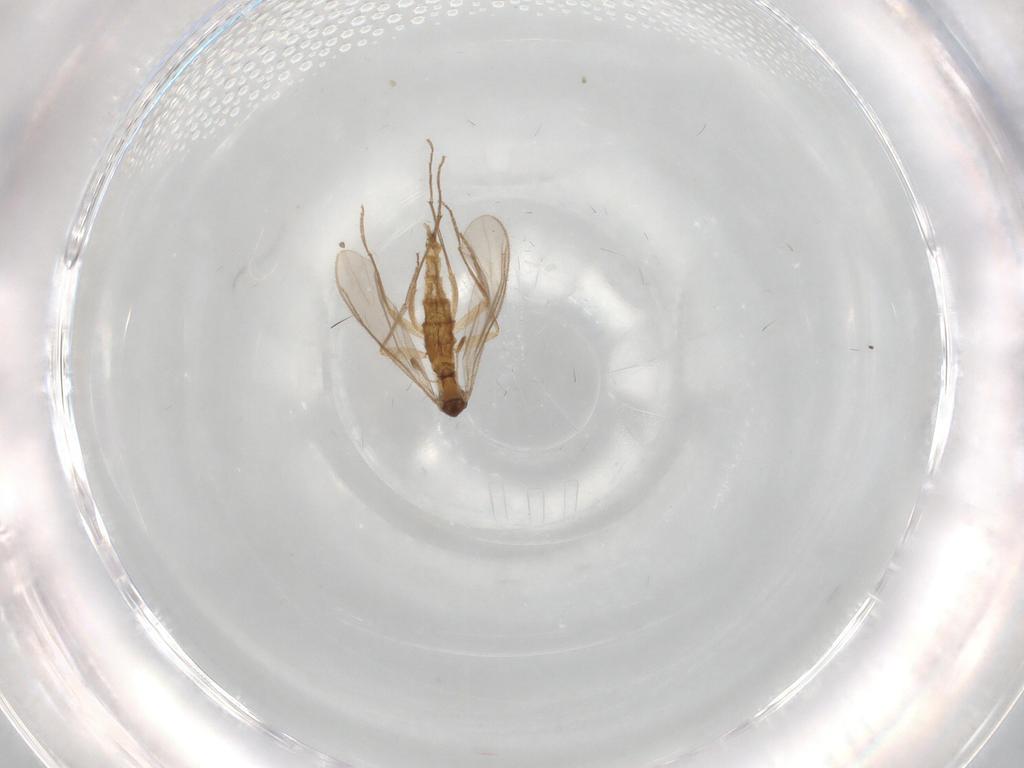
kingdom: Animalia
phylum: Arthropoda
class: Insecta
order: Diptera
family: Sciaridae
